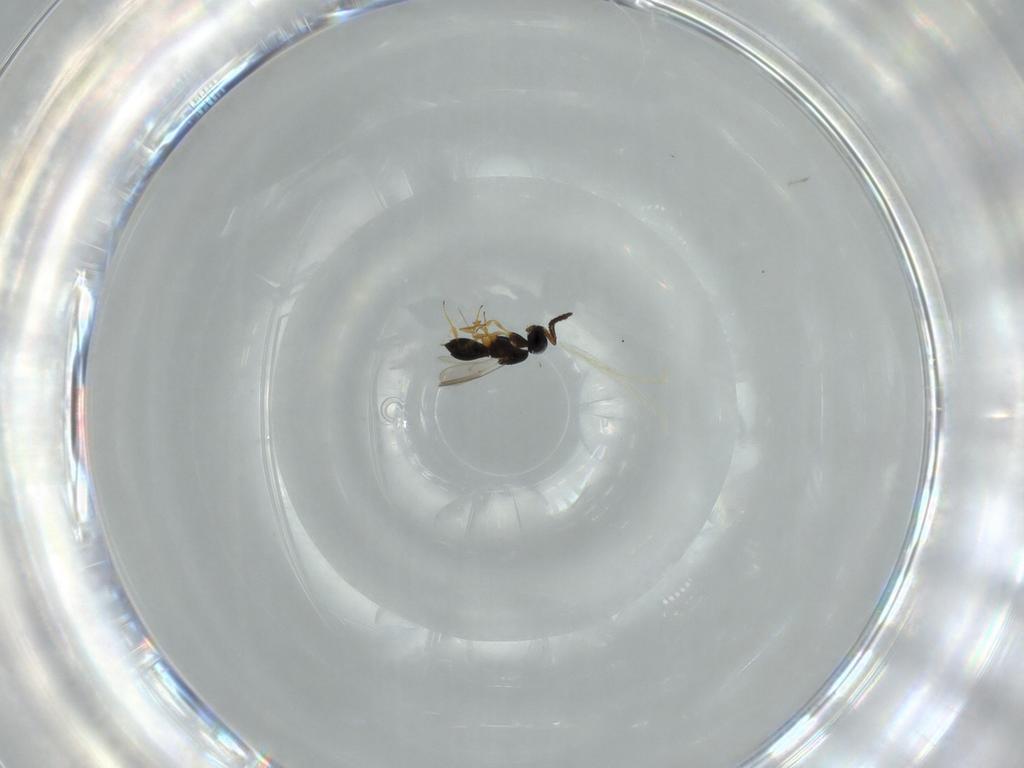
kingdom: Animalia
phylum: Arthropoda
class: Insecta
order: Hymenoptera
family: Scelionidae
